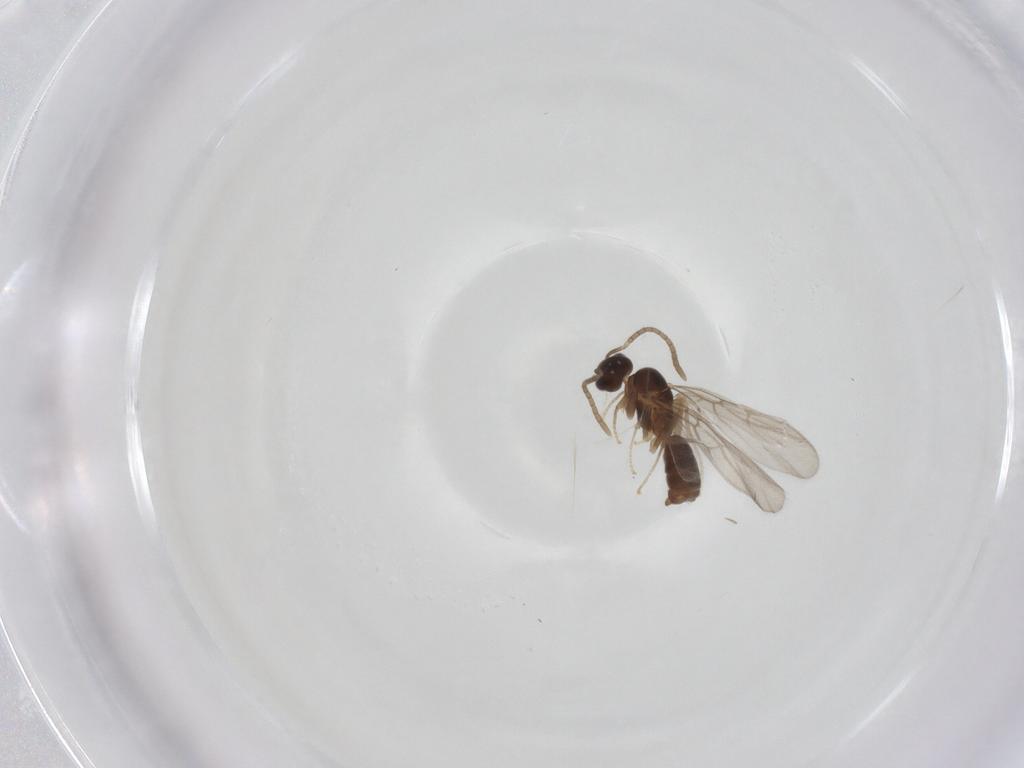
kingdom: Animalia
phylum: Arthropoda
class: Insecta
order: Hymenoptera
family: Formicidae
